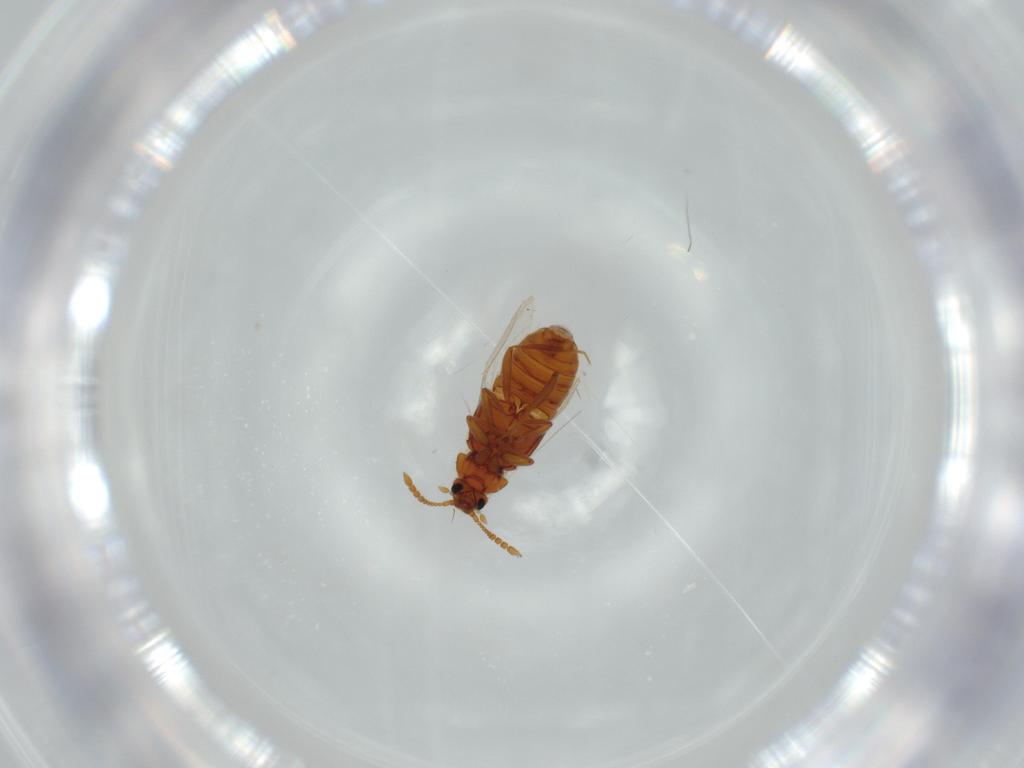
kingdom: Animalia
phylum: Arthropoda
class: Insecta
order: Coleoptera
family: Staphylinidae
